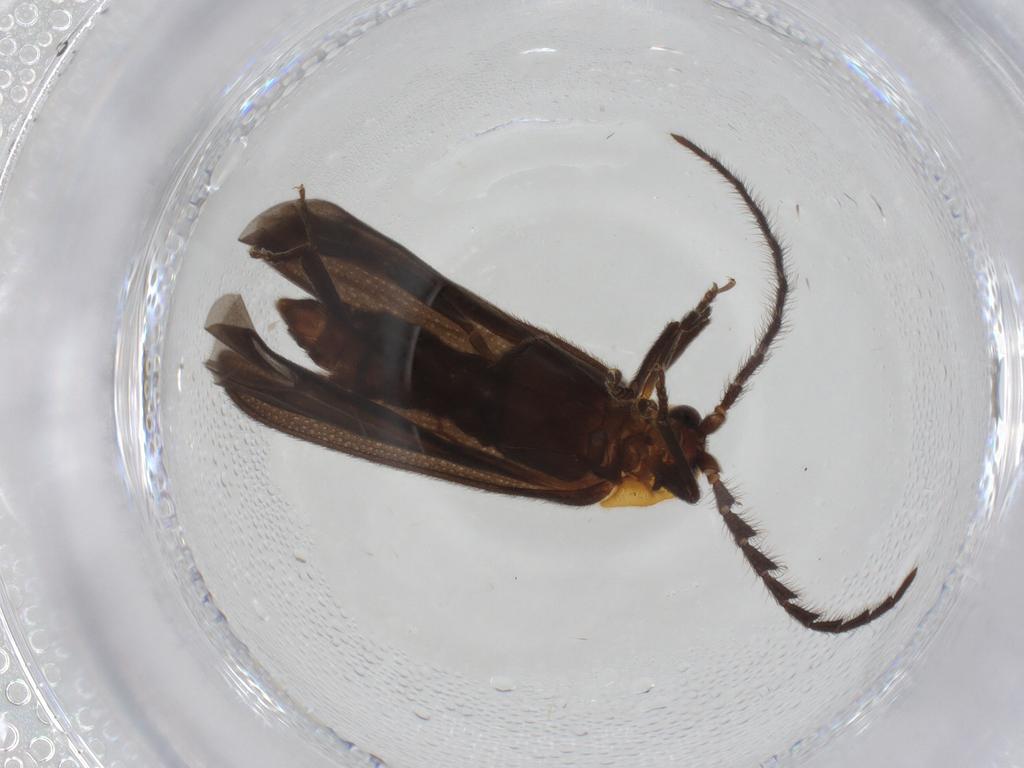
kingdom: Animalia
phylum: Arthropoda
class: Insecta
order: Coleoptera
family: Lycidae
